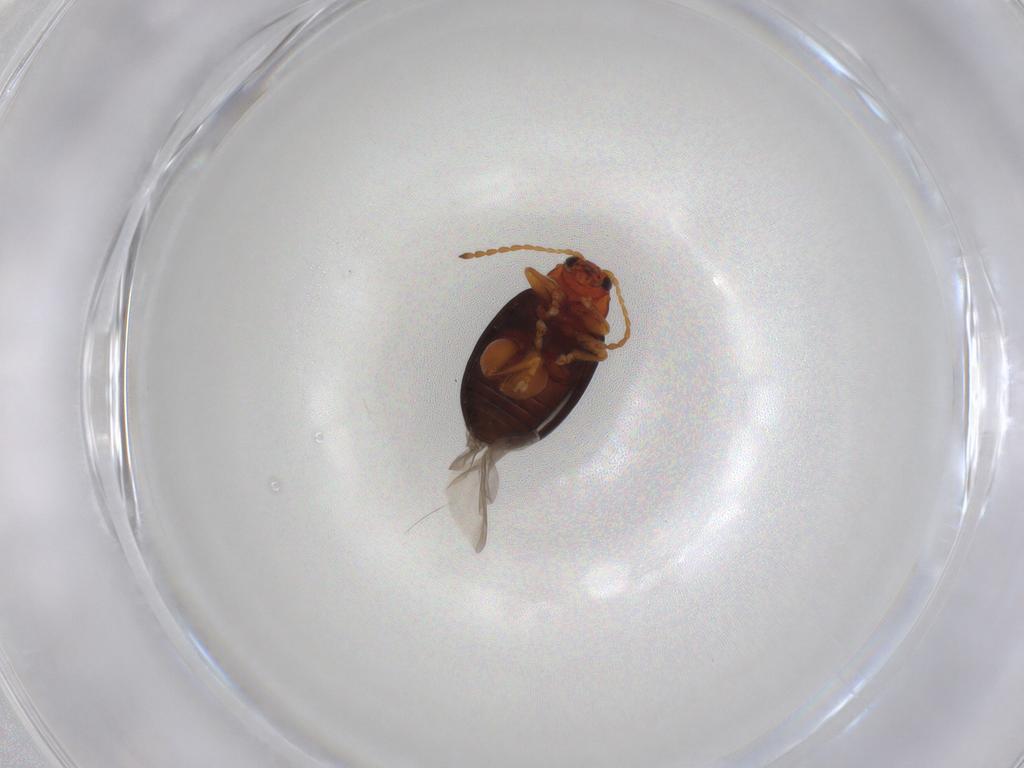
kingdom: Animalia
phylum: Arthropoda
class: Insecta
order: Coleoptera
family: Chrysomelidae
